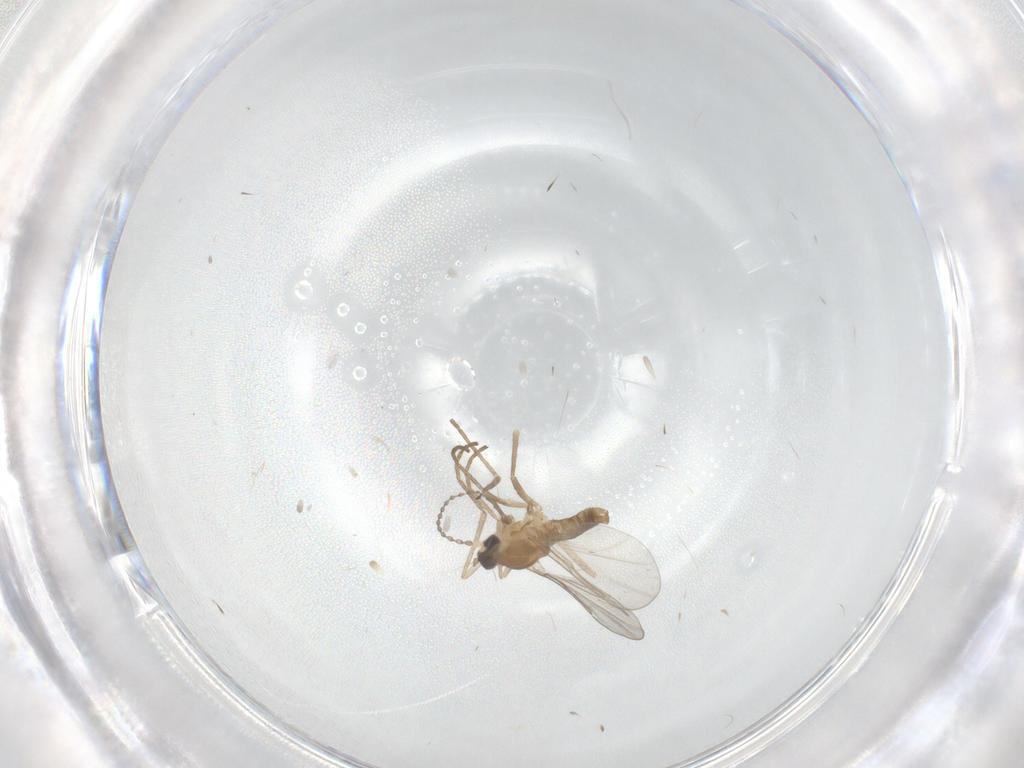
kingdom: Animalia
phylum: Arthropoda
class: Insecta
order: Diptera
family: Cecidomyiidae
